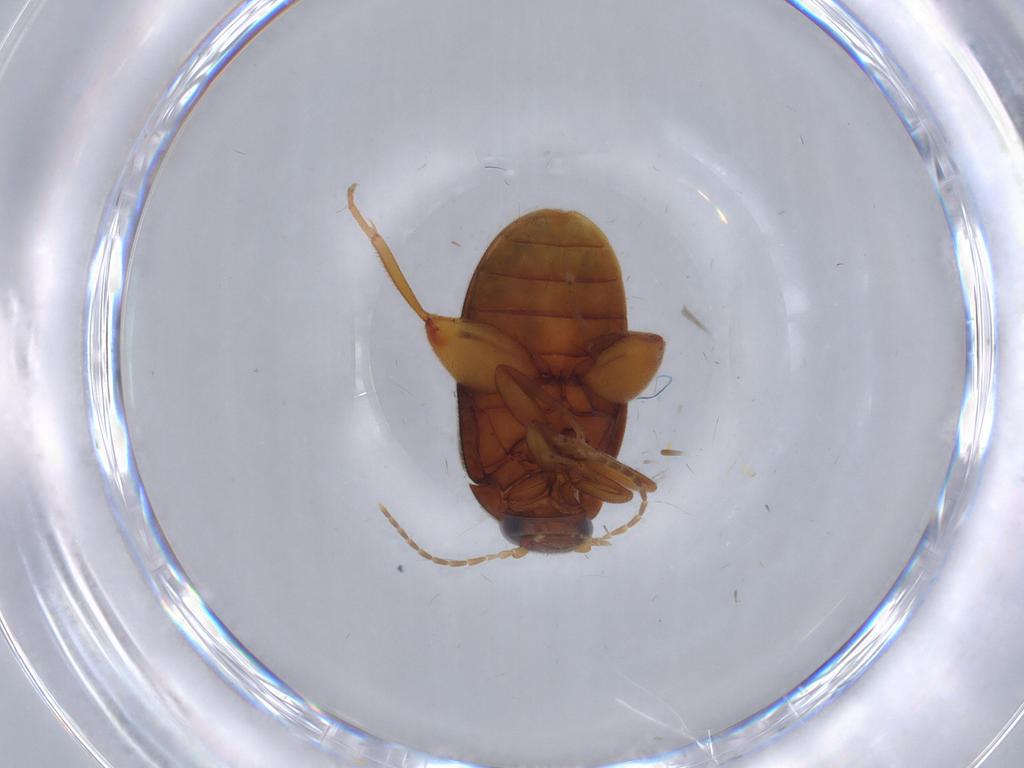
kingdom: Animalia
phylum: Arthropoda
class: Insecta
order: Coleoptera
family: Scirtidae
